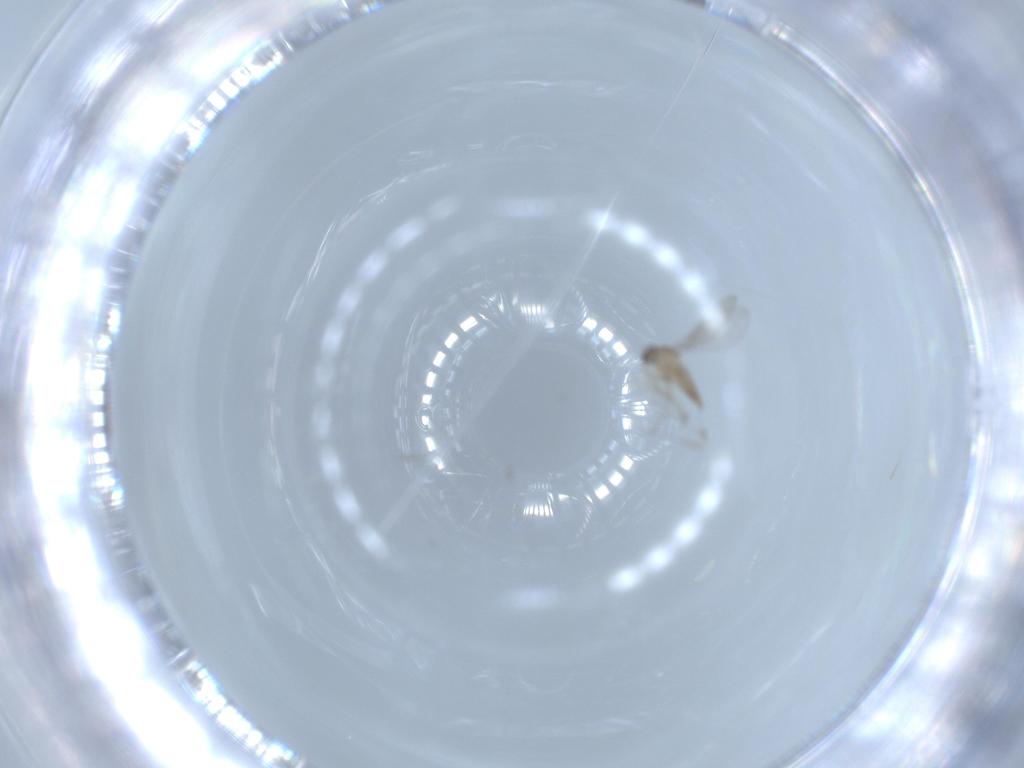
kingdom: Animalia
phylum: Arthropoda
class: Insecta
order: Diptera
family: Cecidomyiidae
